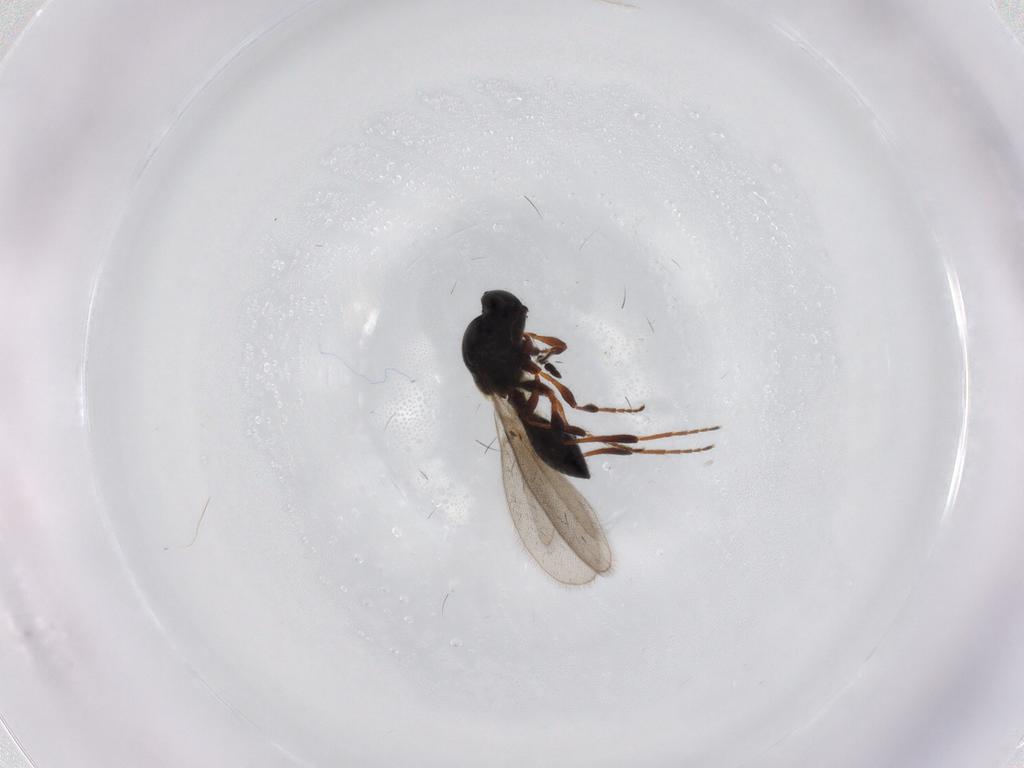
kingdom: Animalia
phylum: Arthropoda
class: Insecta
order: Hymenoptera
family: Platygastridae
